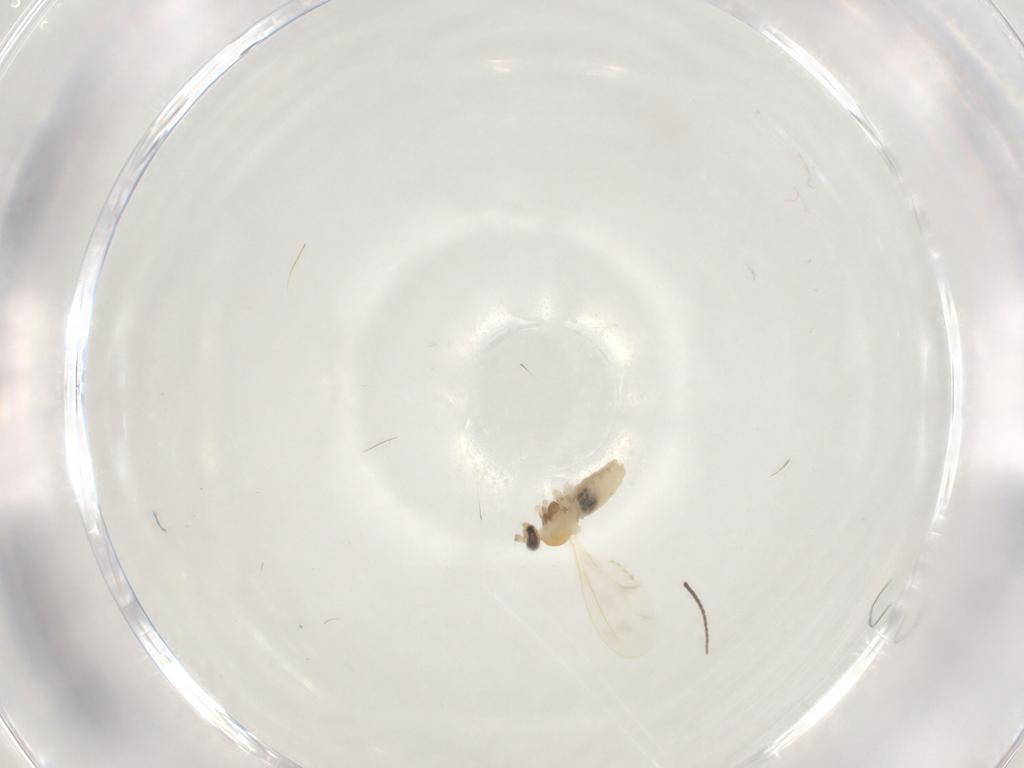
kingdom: Animalia
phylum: Arthropoda
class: Insecta
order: Diptera
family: Cecidomyiidae
